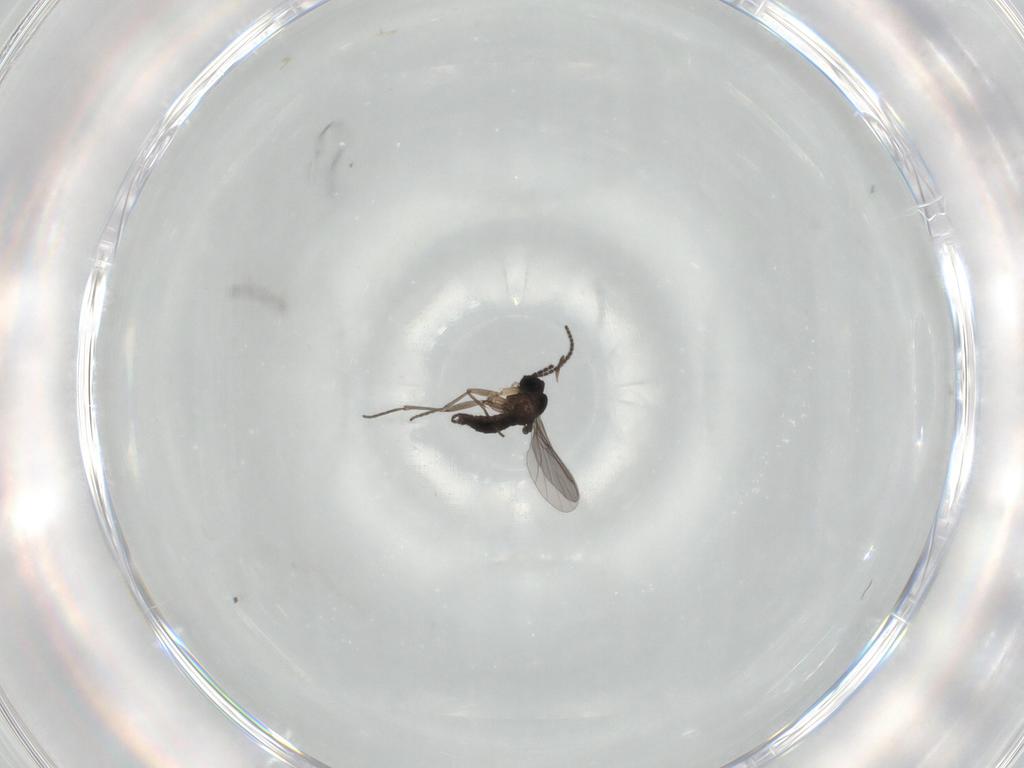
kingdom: Animalia
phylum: Arthropoda
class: Insecta
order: Diptera
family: Sciaridae
